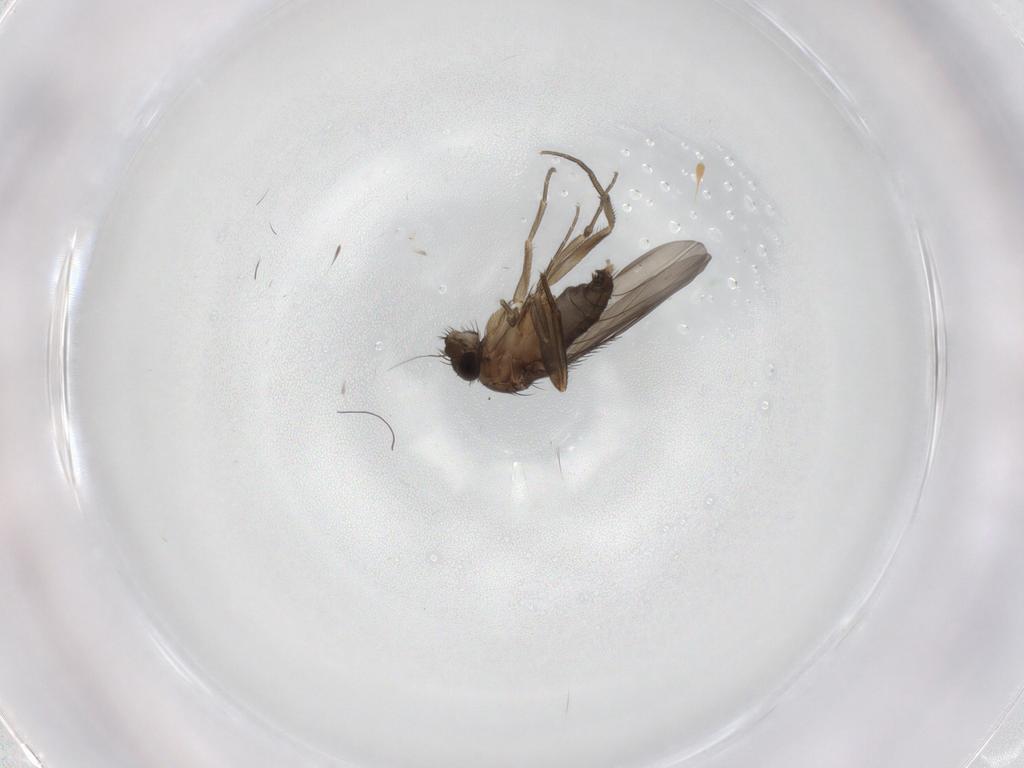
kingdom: Animalia
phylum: Arthropoda
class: Insecta
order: Diptera
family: Phoridae
